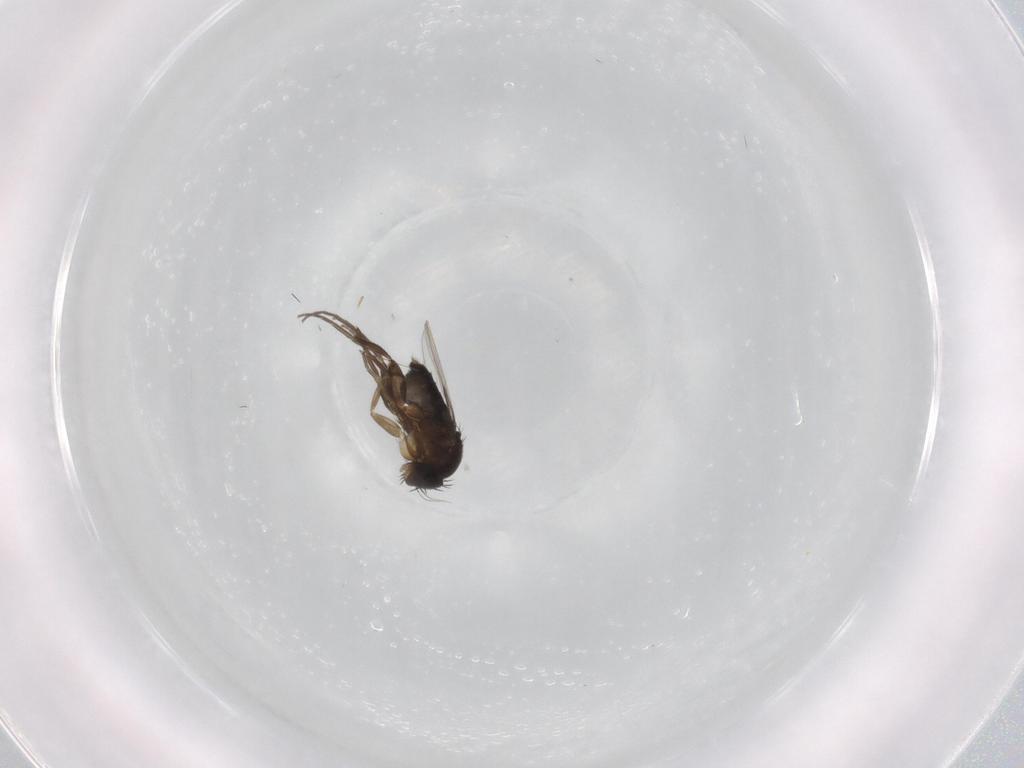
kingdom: Animalia
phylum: Arthropoda
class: Insecta
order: Diptera
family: Phoridae
